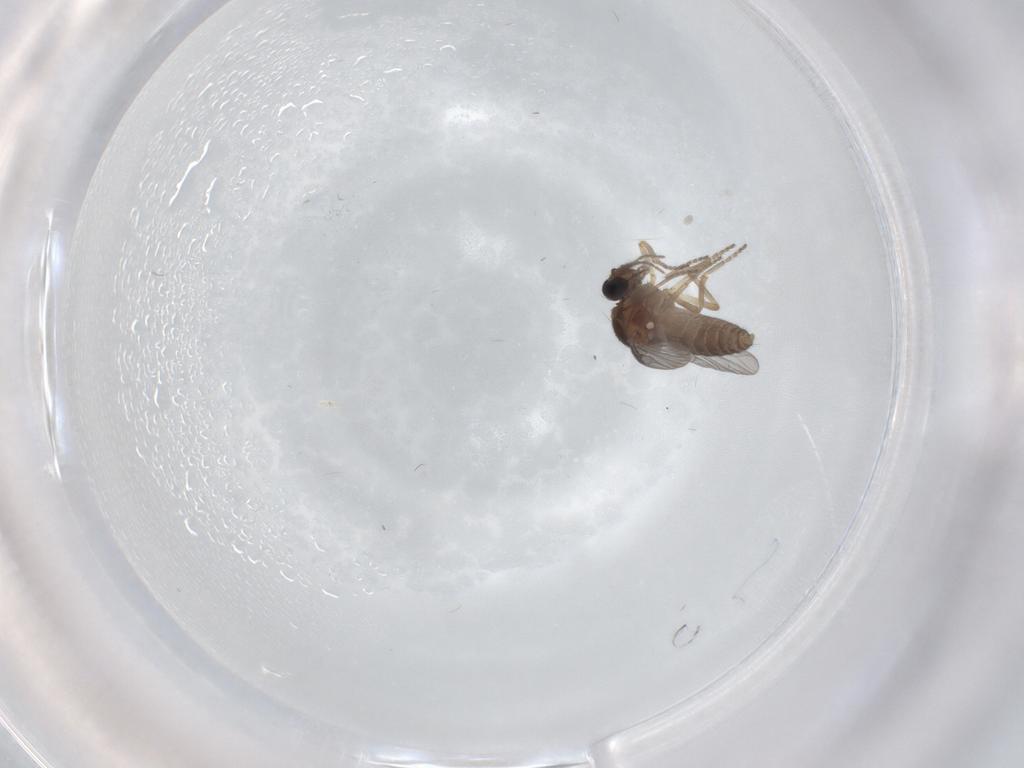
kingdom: Animalia
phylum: Arthropoda
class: Insecta
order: Diptera
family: Ceratopogonidae
